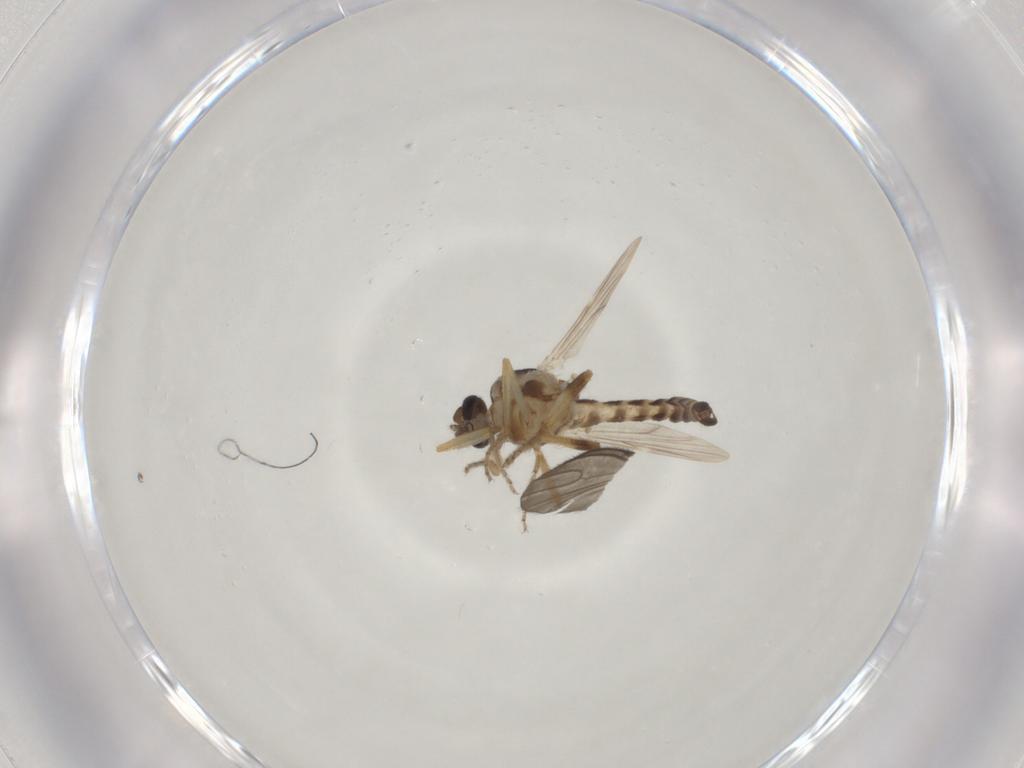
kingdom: Animalia
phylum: Arthropoda
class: Insecta
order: Diptera
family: Sciaridae
